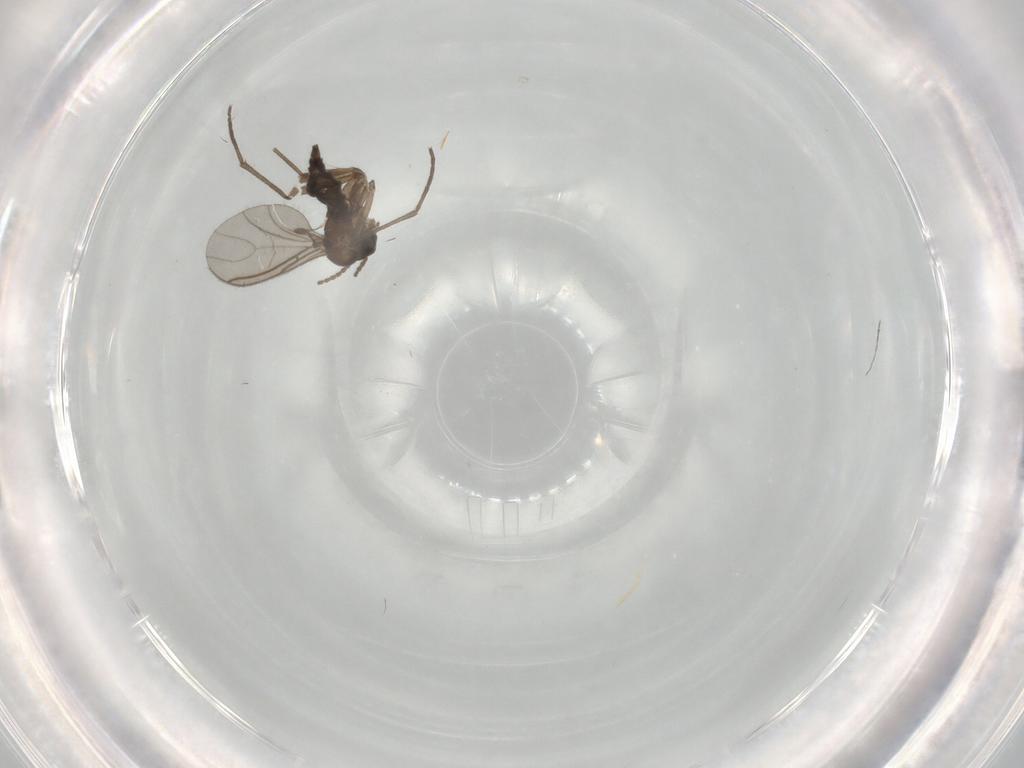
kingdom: Animalia
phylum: Arthropoda
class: Insecta
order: Diptera
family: Sciaridae
